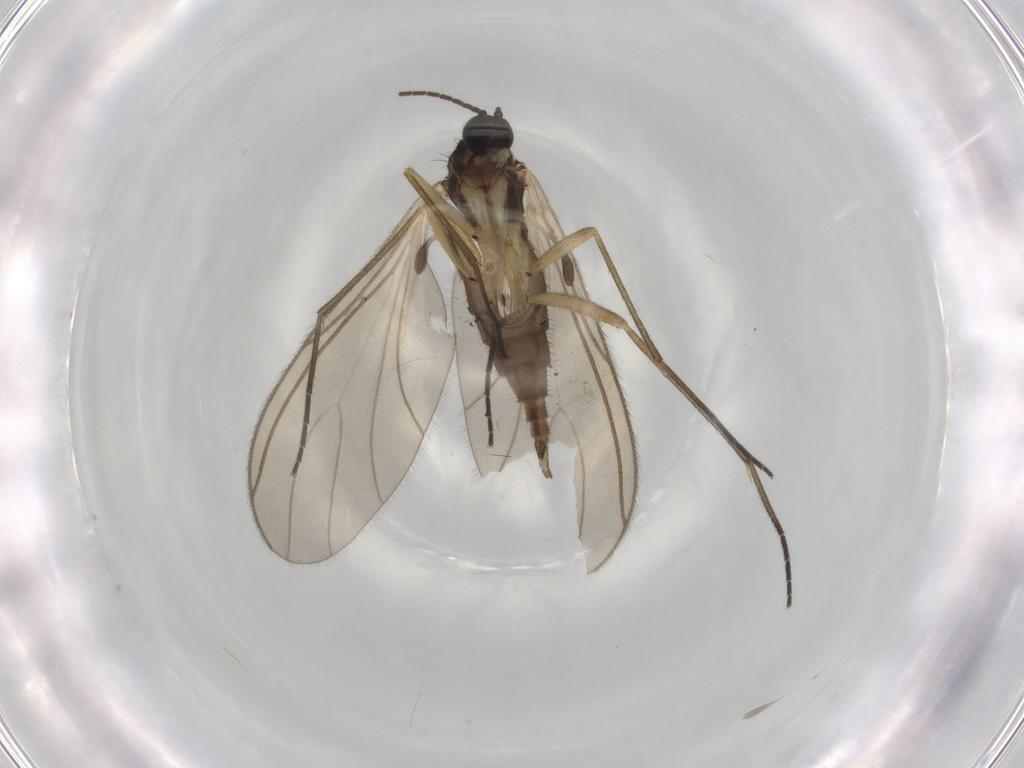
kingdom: Animalia
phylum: Arthropoda
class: Insecta
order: Diptera
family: Sciaridae
